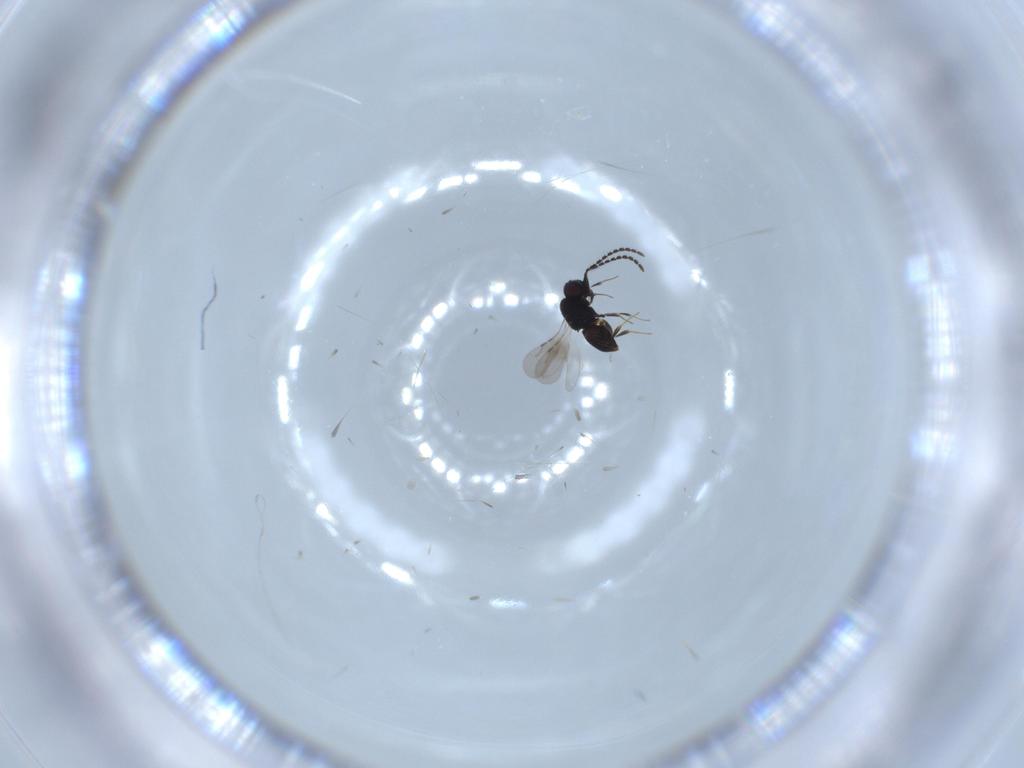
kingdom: Animalia
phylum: Arthropoda
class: Insecta
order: Hymenoptera
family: Ceraphronidae
